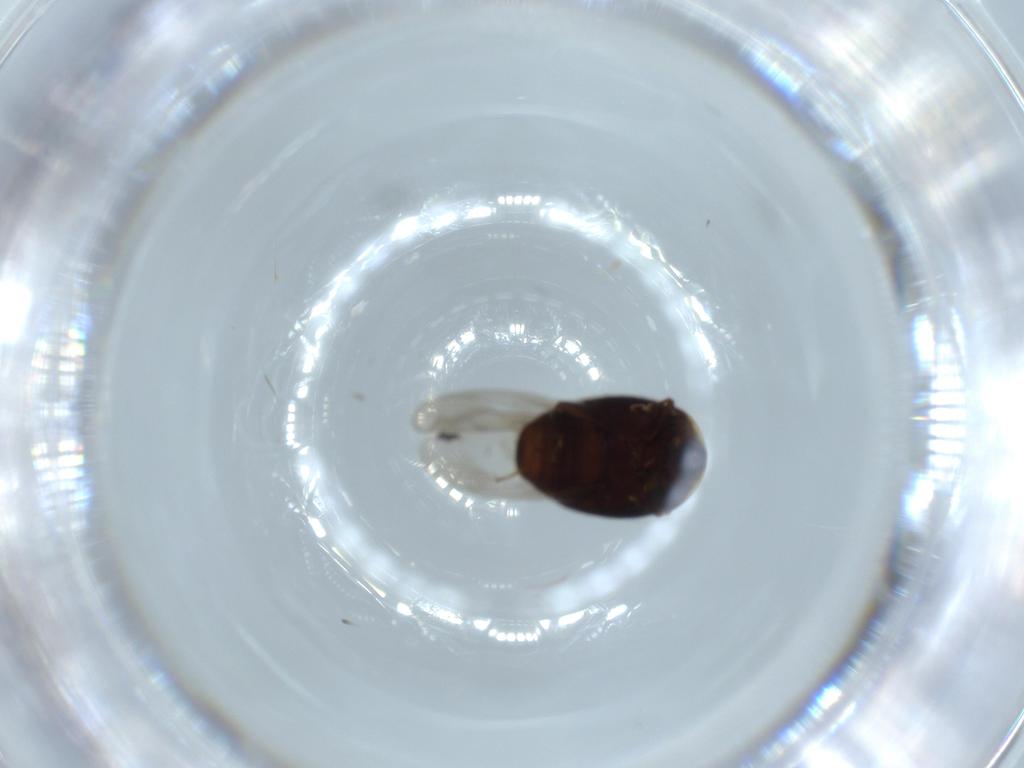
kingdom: Animalia
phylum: Arthropoda
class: Insecta
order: Coleoptera
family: Corylophidae
